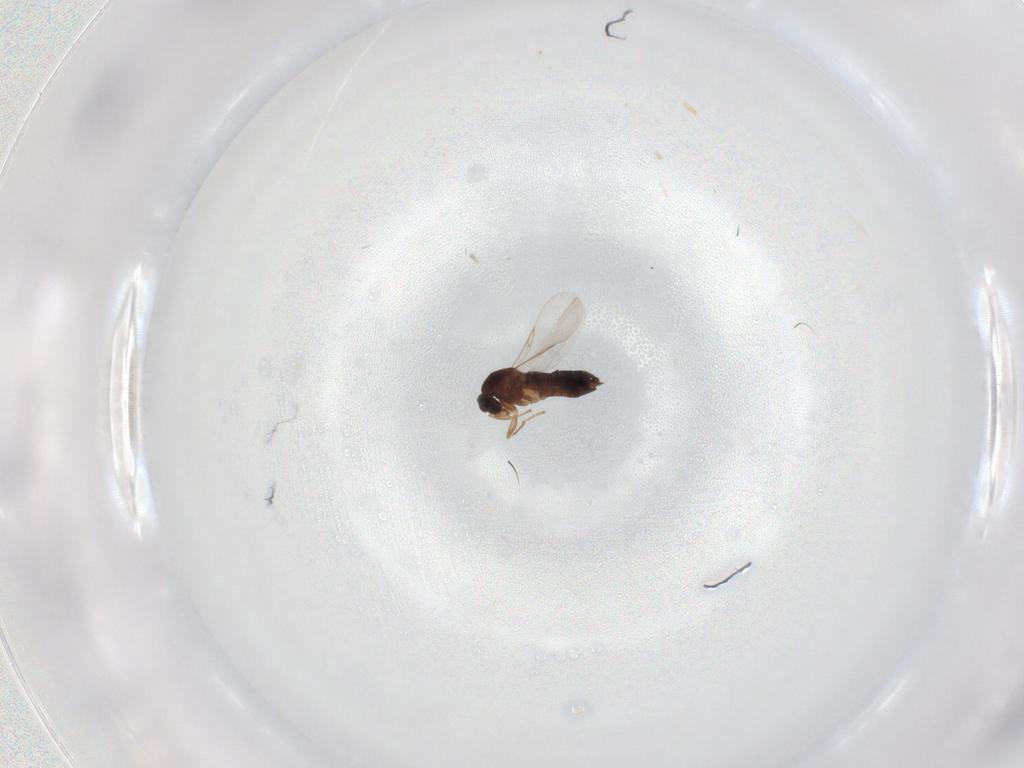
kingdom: Animalia
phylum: Arthropoda
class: Insecta
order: Diptera
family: Scatopsidae
